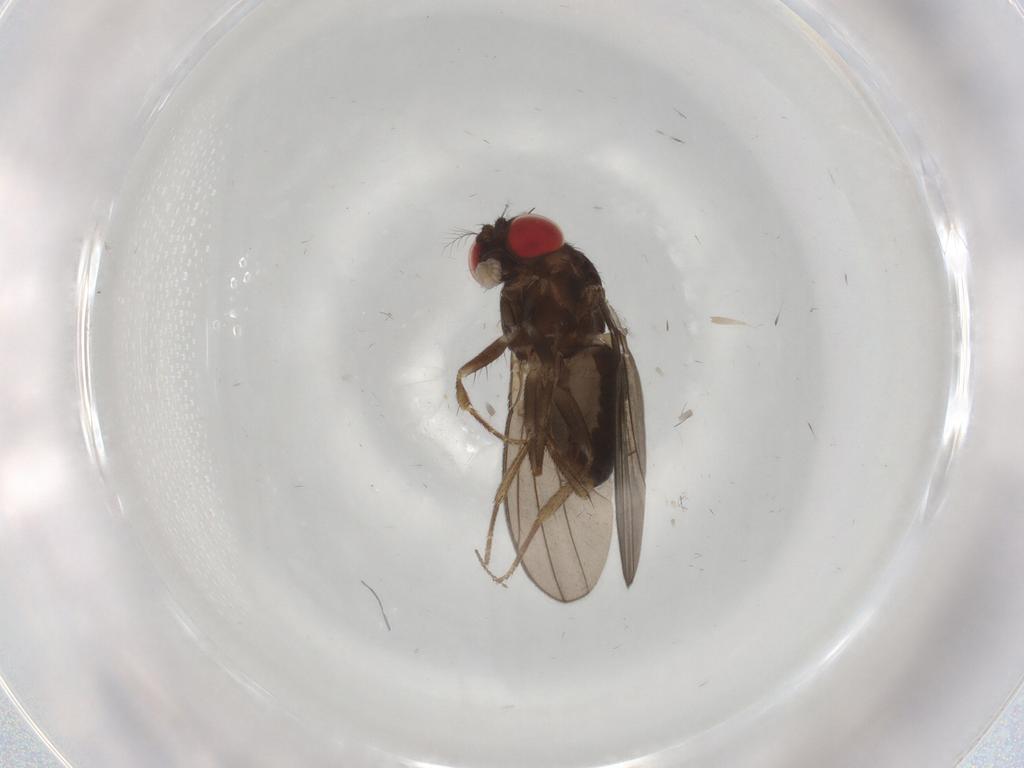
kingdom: Animalia
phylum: Arthropoda
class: Insecta
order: Diptera
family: Drosophilidae
